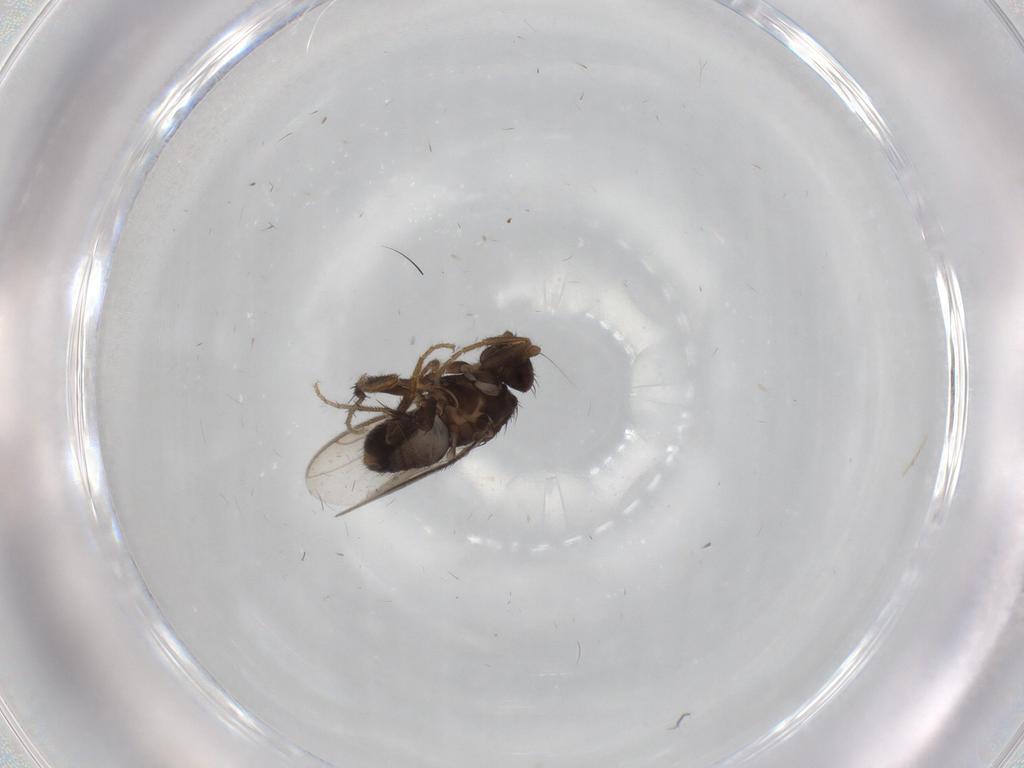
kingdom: Animalia
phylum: Arthropoda
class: Insecta
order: Diptera
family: Sphaeroceridae
